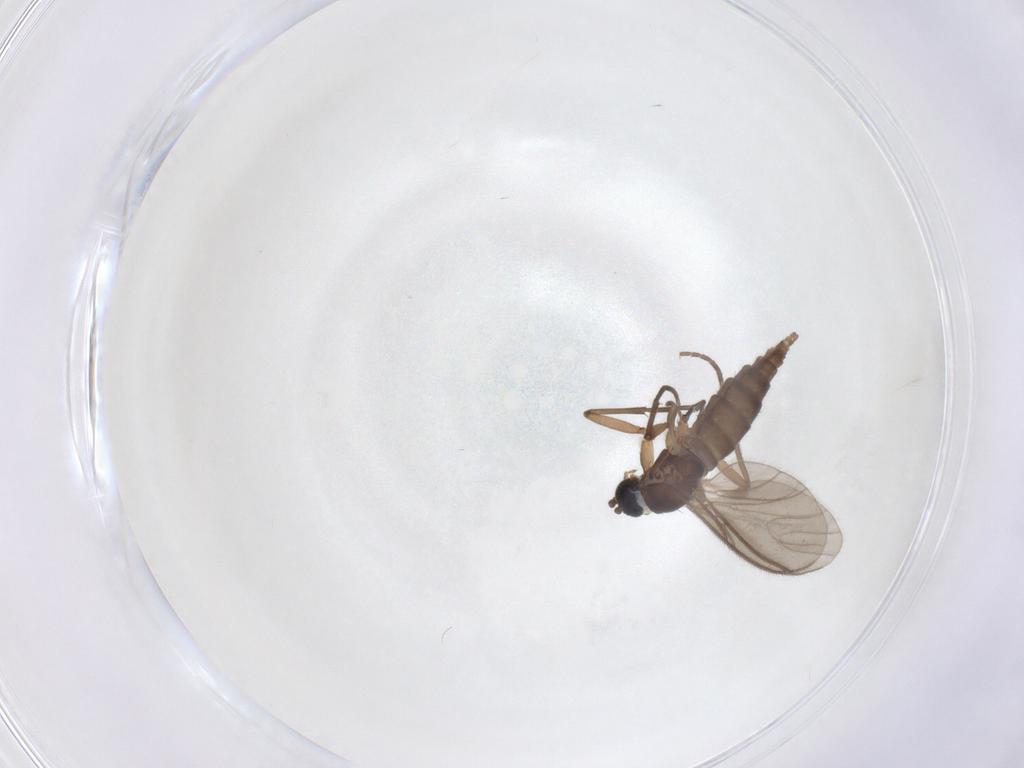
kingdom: Animalia
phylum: Arthropoda
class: Insecta
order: Diptera
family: Sciaridae
